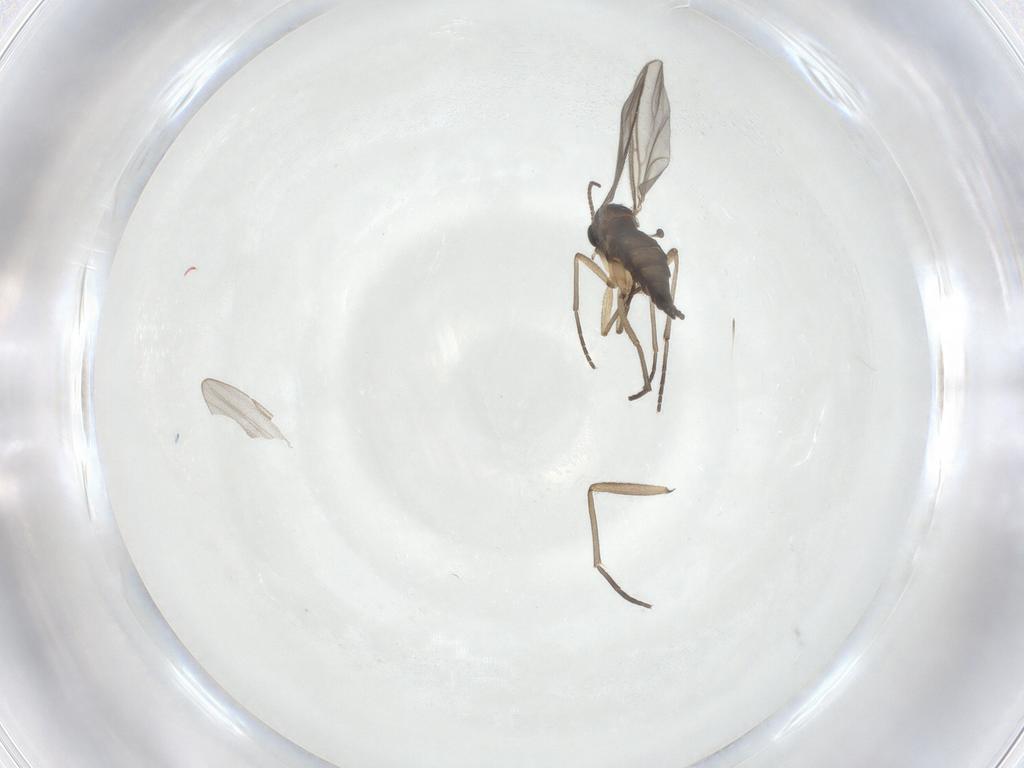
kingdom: Animalia
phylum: Arthropoda
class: Insecta
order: Diptera
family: Sciaridae
